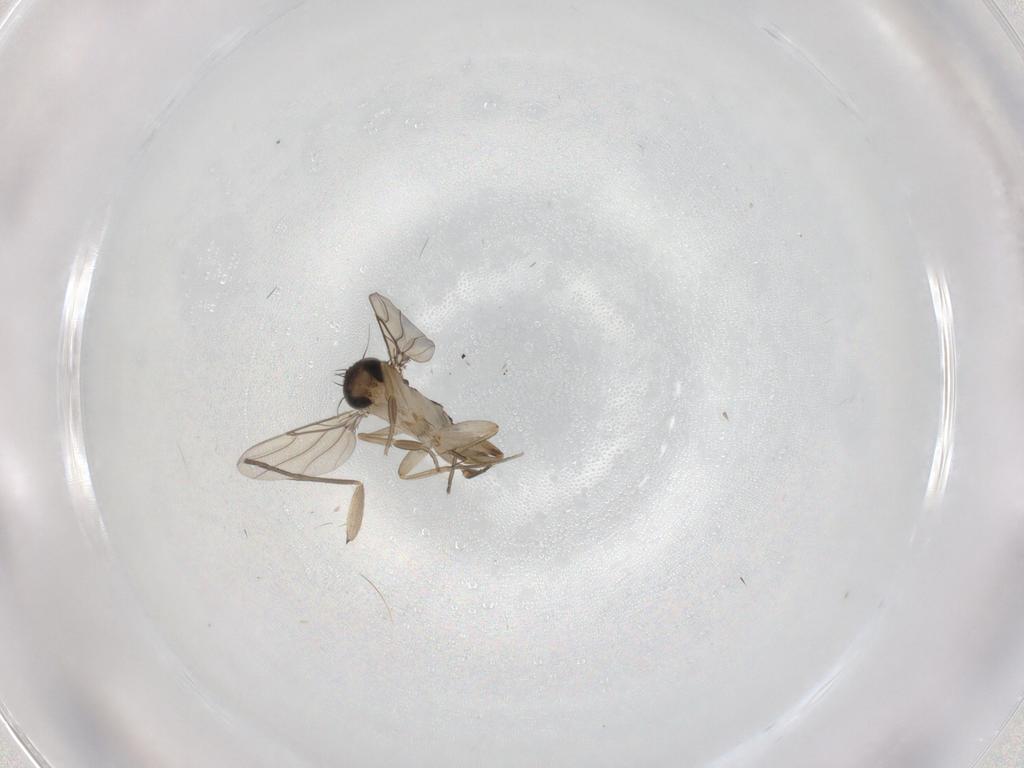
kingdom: Animalia
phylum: Arthropoda
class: Insecta
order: Diptera
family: Phoridae
